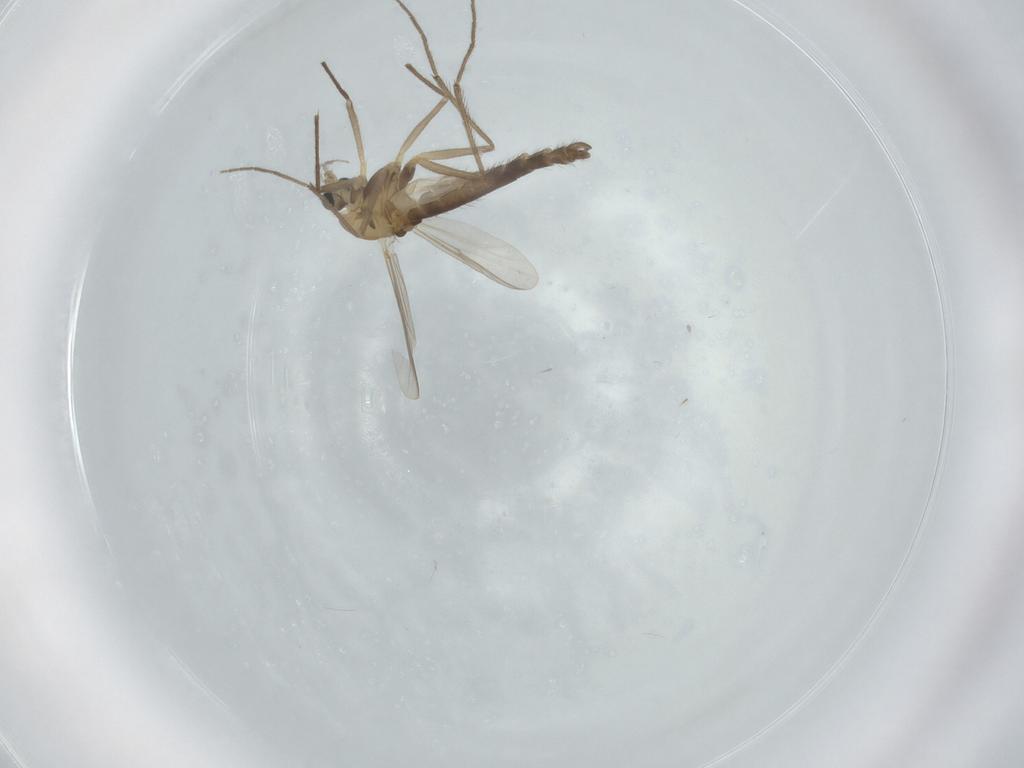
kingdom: Animalia
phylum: Arthropoda
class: Insecta
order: Diptera
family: Chironomidae
